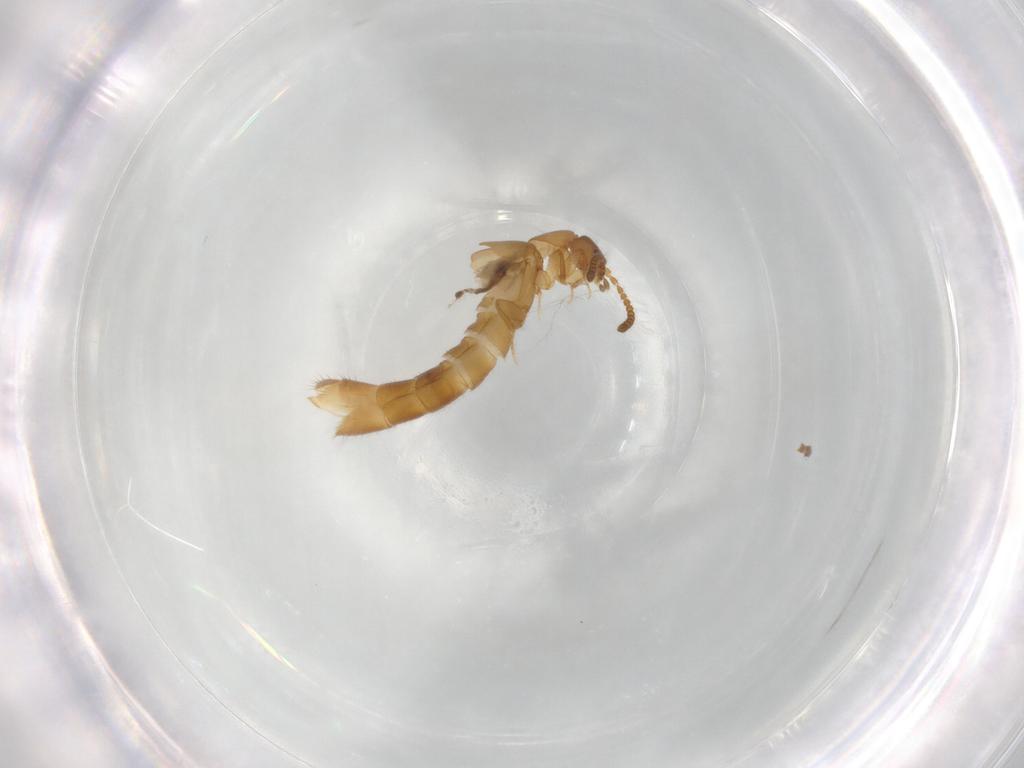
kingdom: Animalia
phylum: Arthropoda
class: Insecta
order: Coleoptera
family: Staphylinidae
